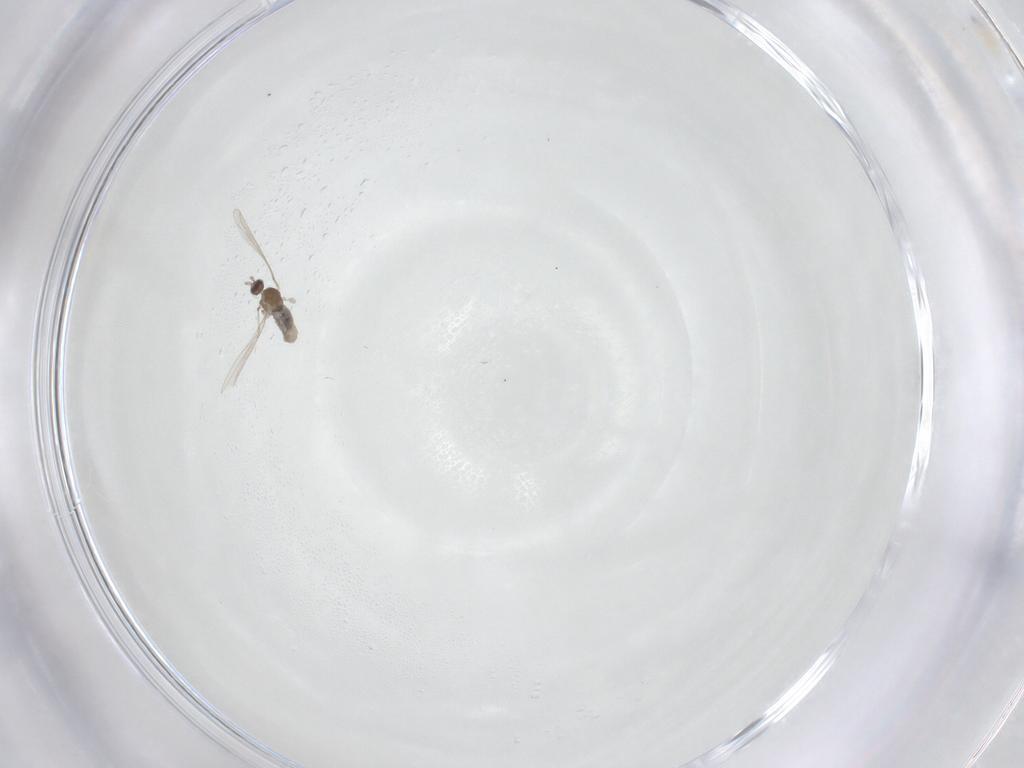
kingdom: Animalia
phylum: Arthropoda
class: Insecta
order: Diptera
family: Cecidomyiidae
